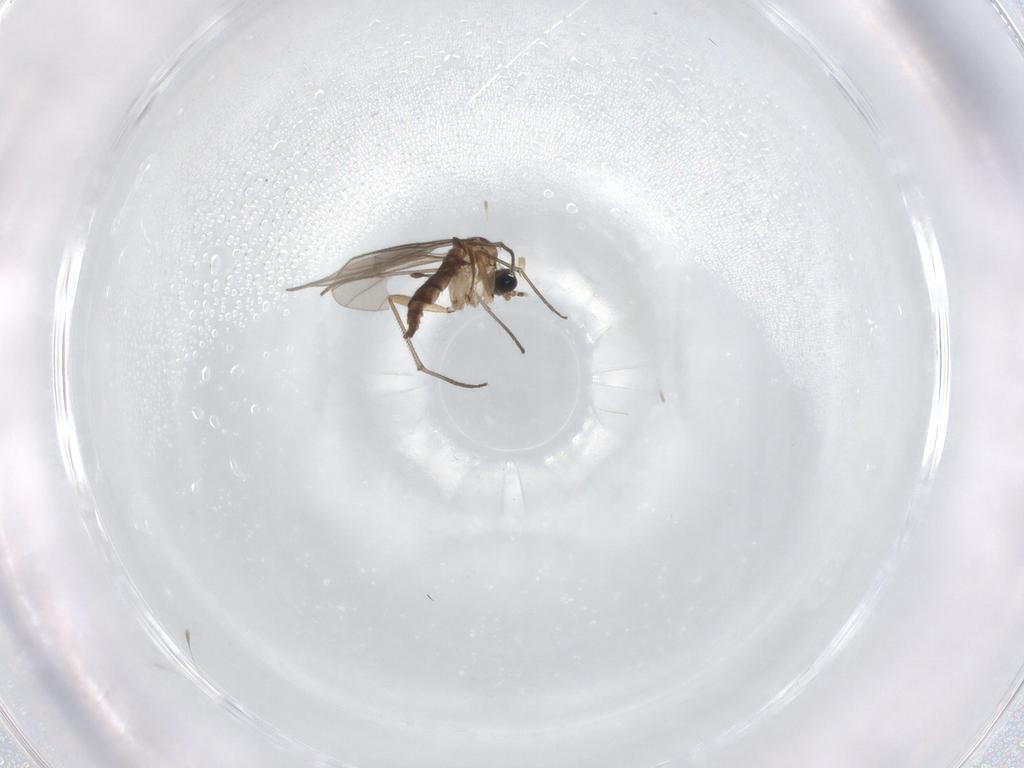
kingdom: Animalia
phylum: Arthropoda
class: Insecta
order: Diptera
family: Sciaridae
